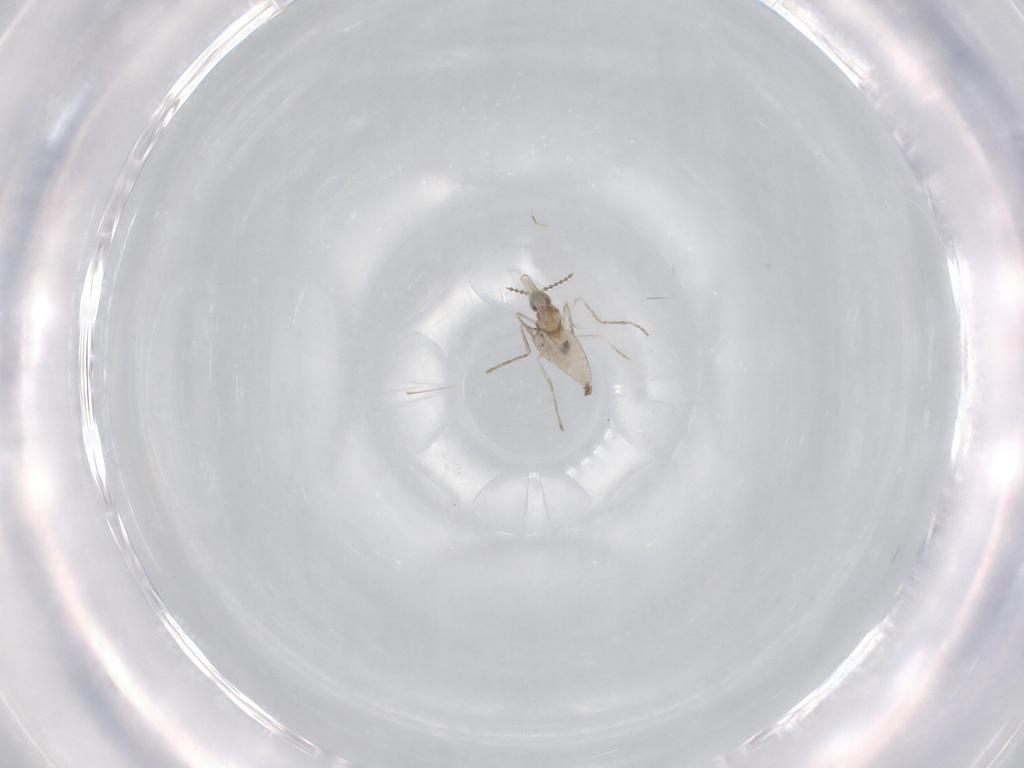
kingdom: Animalia
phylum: Arthropoda
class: Insecta
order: Diptera
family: Chironomidae
